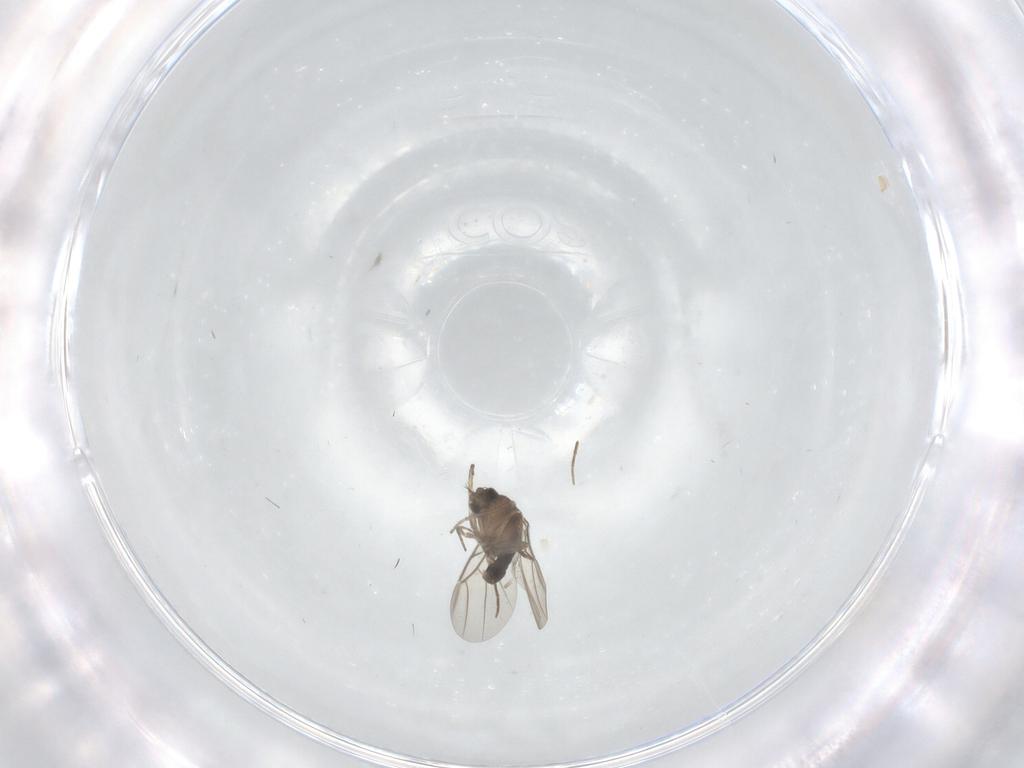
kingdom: Animalia
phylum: Arthropoda
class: Insecta
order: Diptera
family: Phoridae
